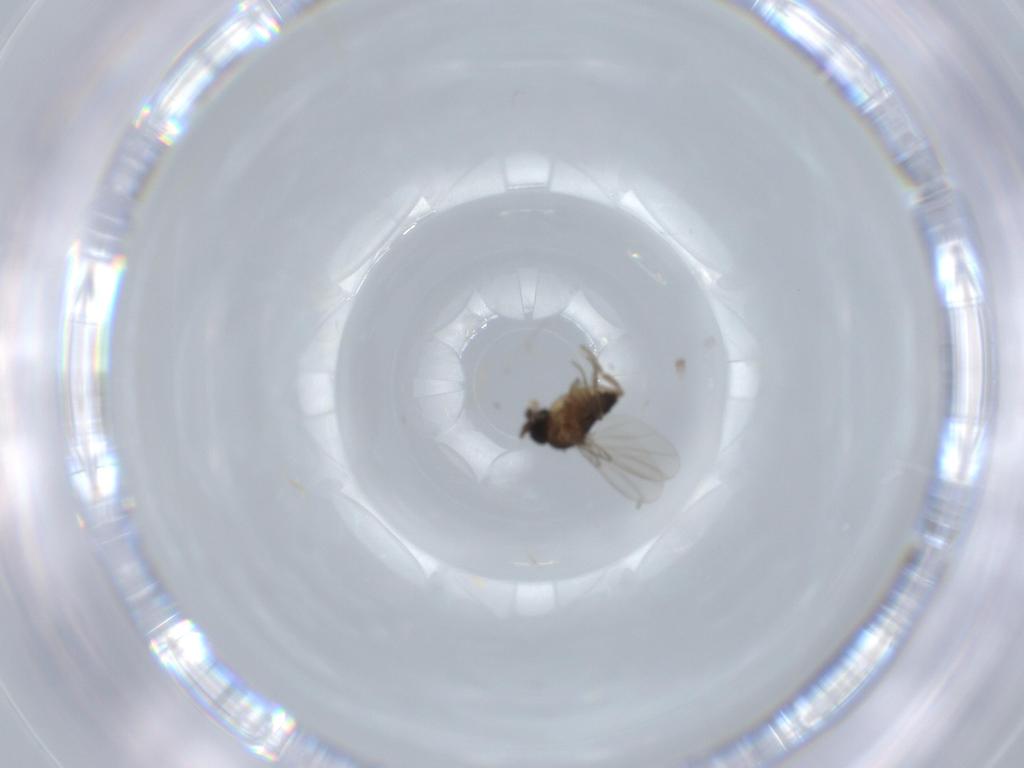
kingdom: Animalia
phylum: Arthropoda
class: Insecta
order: Diptera
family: Phoridae
